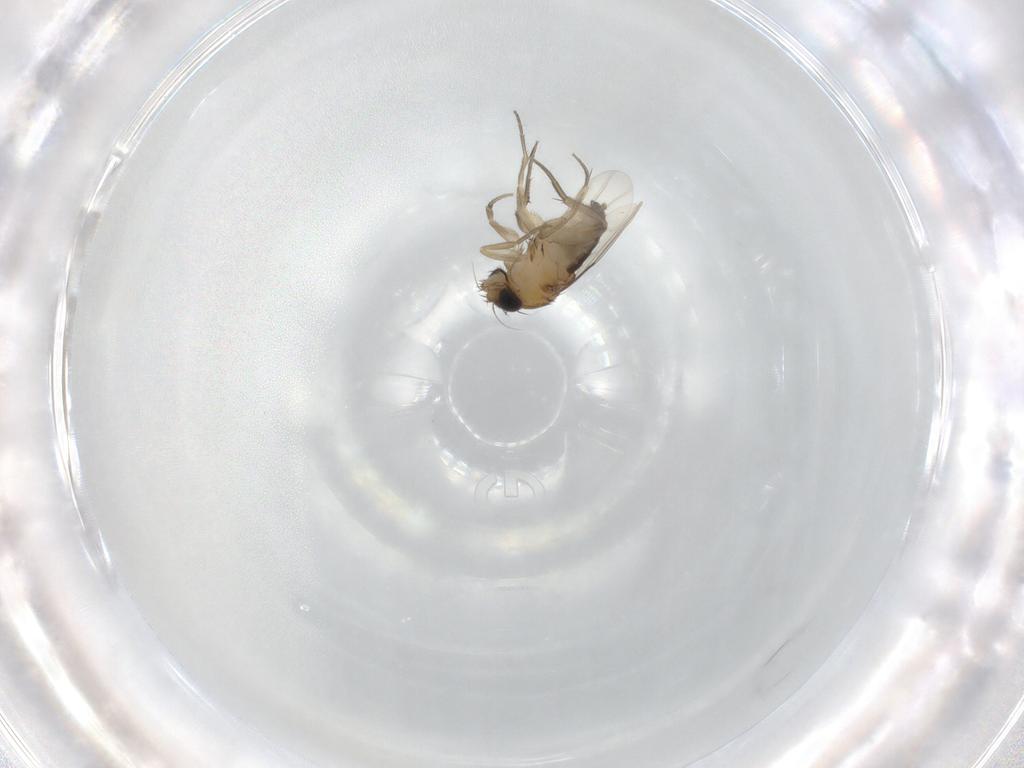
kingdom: Animalia
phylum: Arthropoda
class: Insecta
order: Diptera
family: Phoridae
